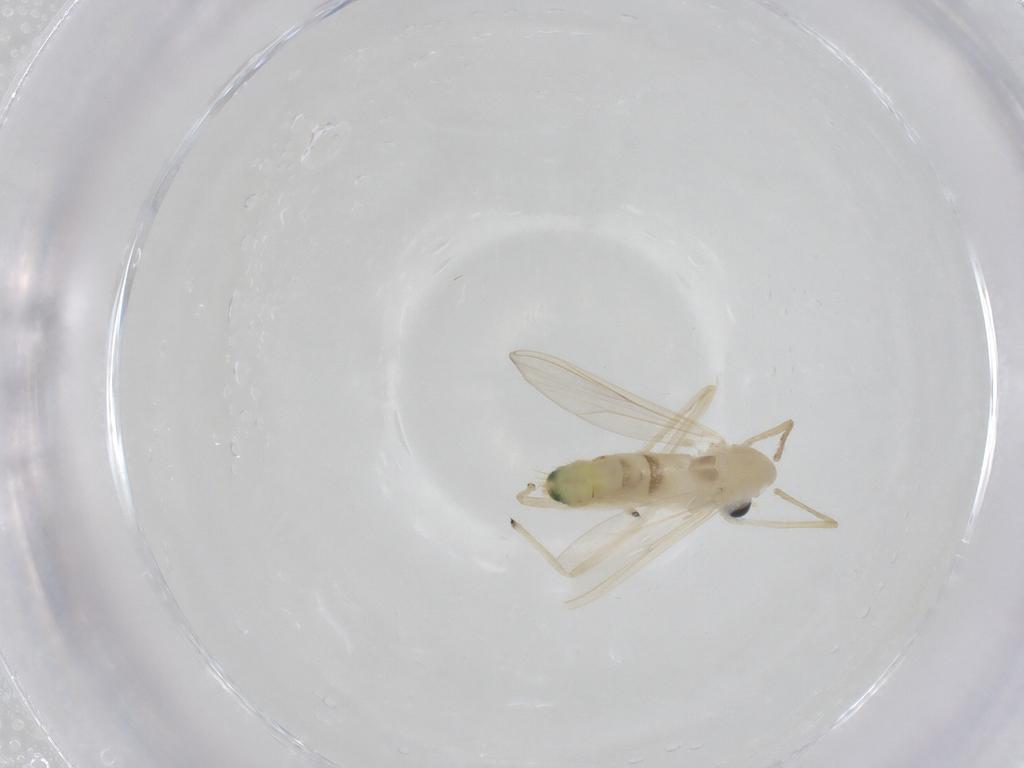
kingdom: Animalia
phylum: Arthropoda
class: Insecta
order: Diptera
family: Chironomidae
